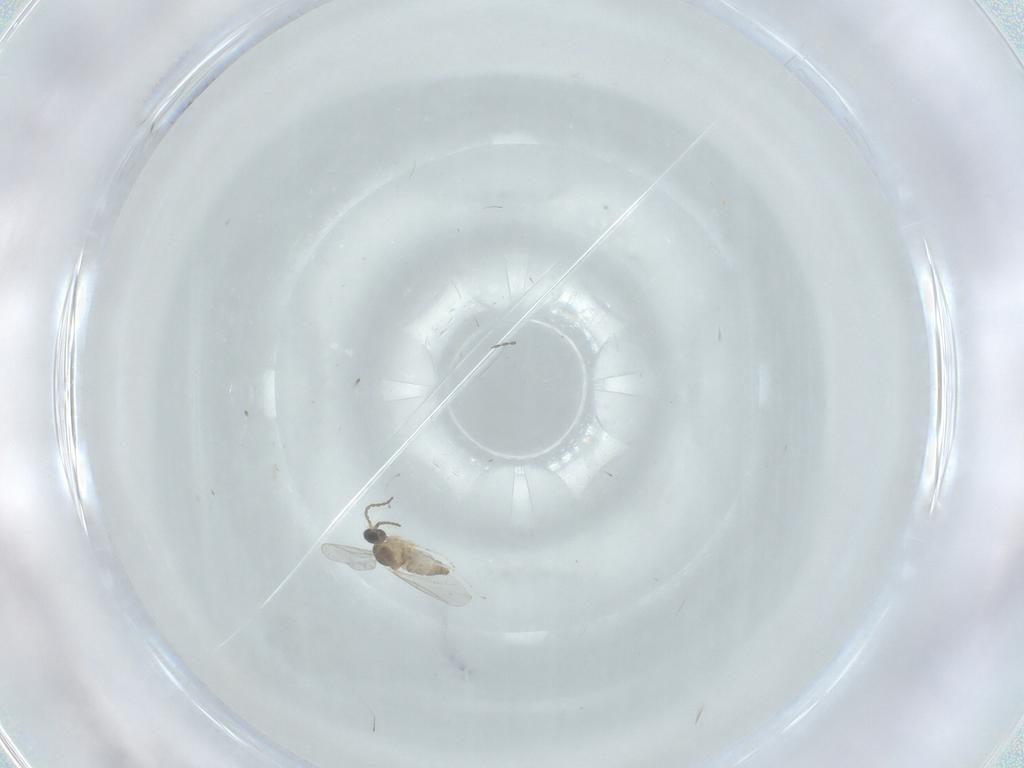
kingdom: Animalia
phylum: Arthropoda
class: Insecta
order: Diptera
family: Cecidomyiidae
